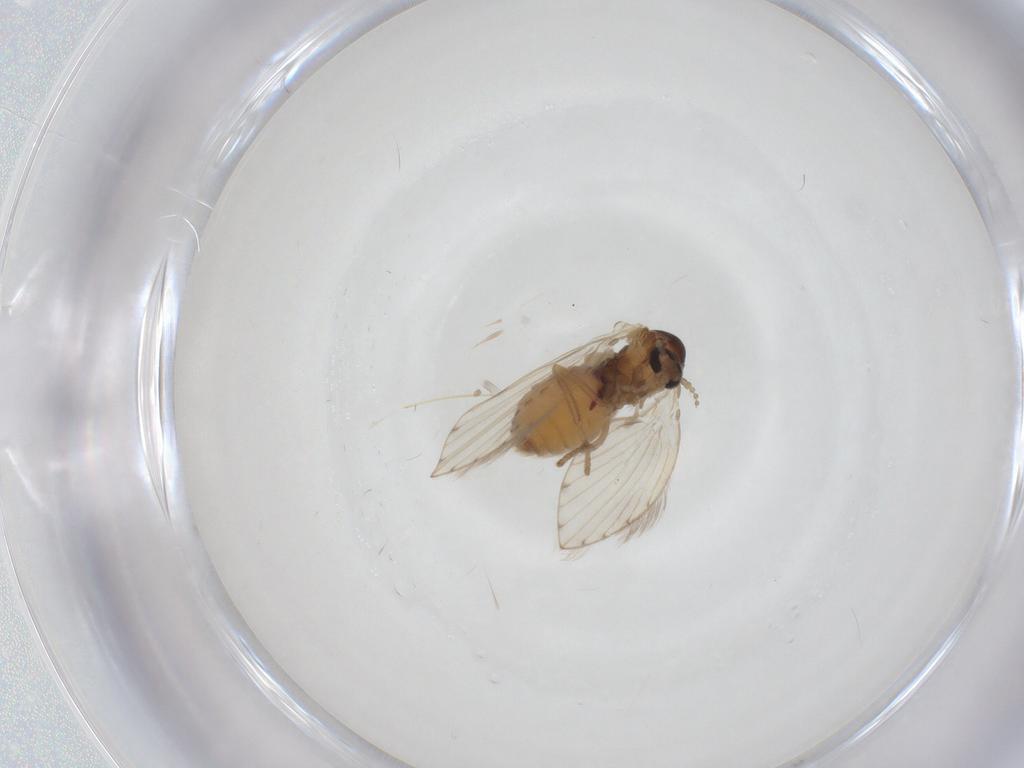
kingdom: Animalia
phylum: Arthropoda
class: Insecta
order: Diptera
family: Psychodidae
